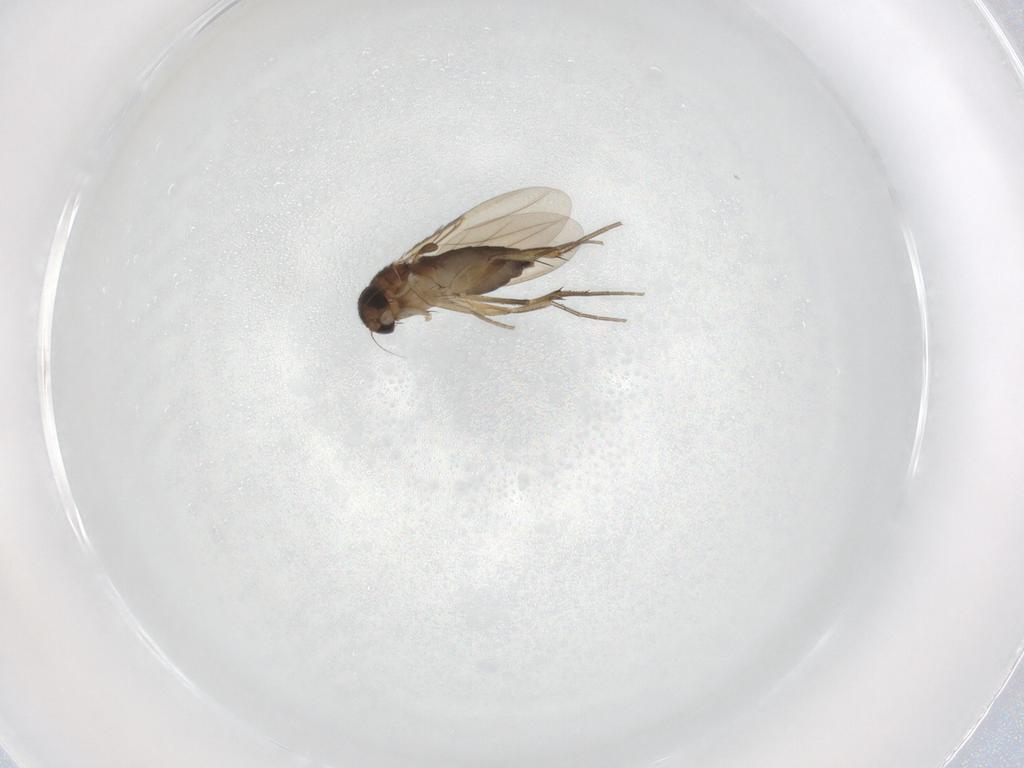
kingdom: Animalia
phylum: Arthropoda
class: Insecta
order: Diptera
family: Phoridae
